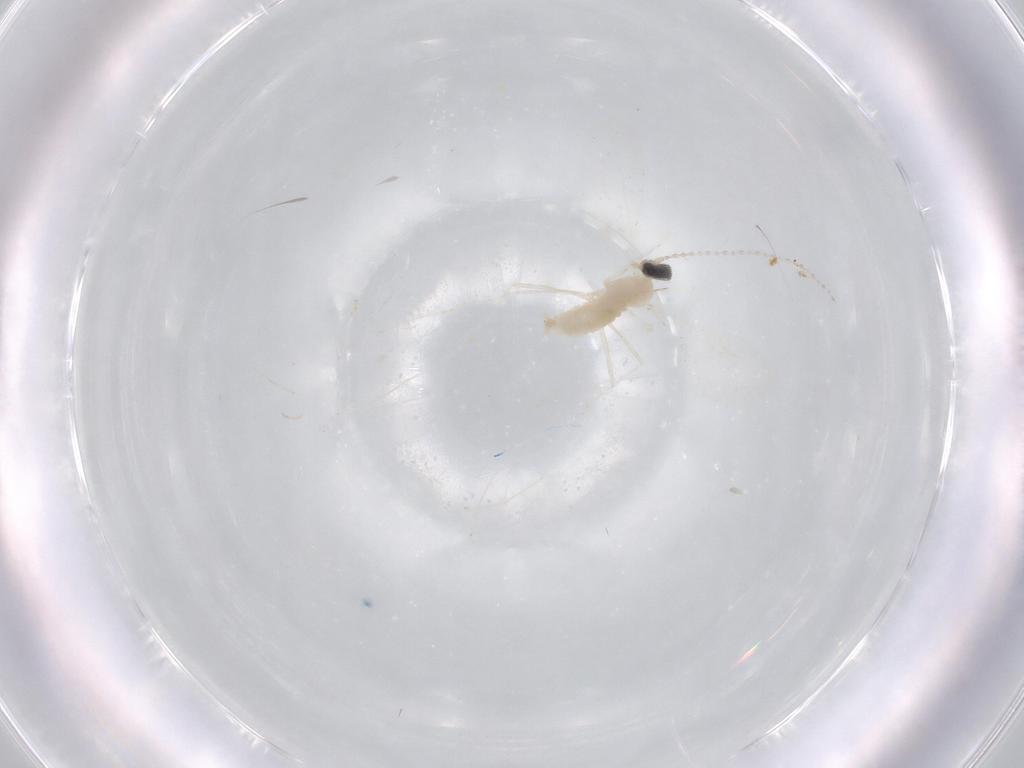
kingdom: Animalia
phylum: Arthropoda
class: Insecta
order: Diptera
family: Cecidomyiidae
